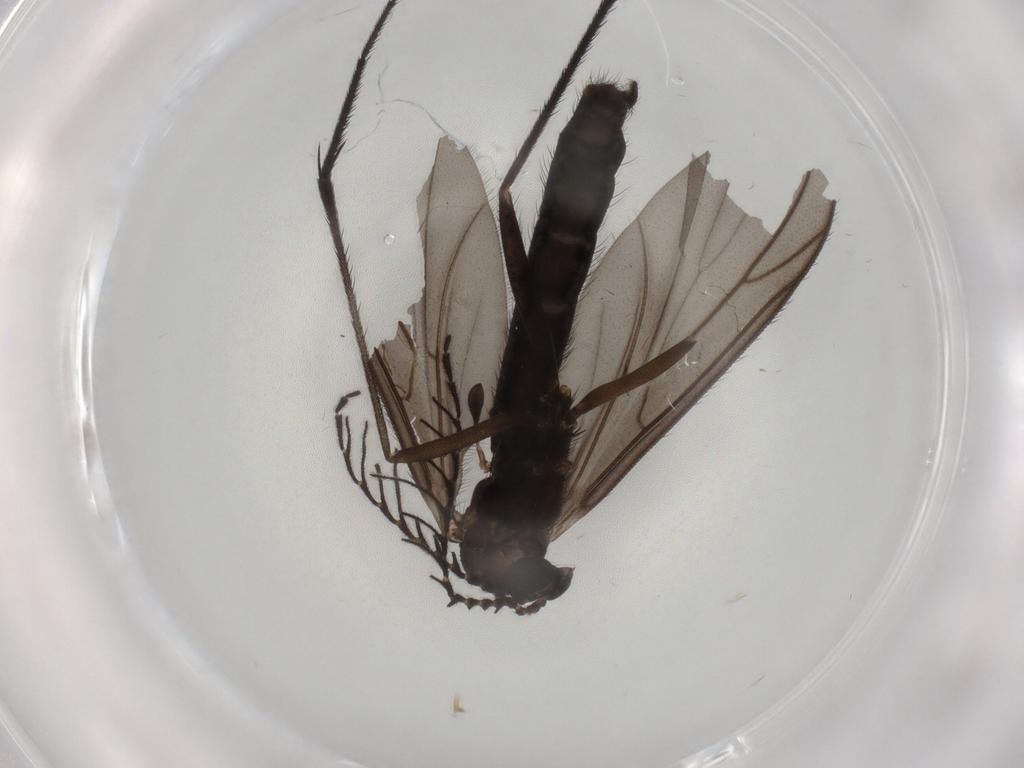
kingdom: Animalia
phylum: Arthropoda
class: Insecta
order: Diptera
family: Phoridae
